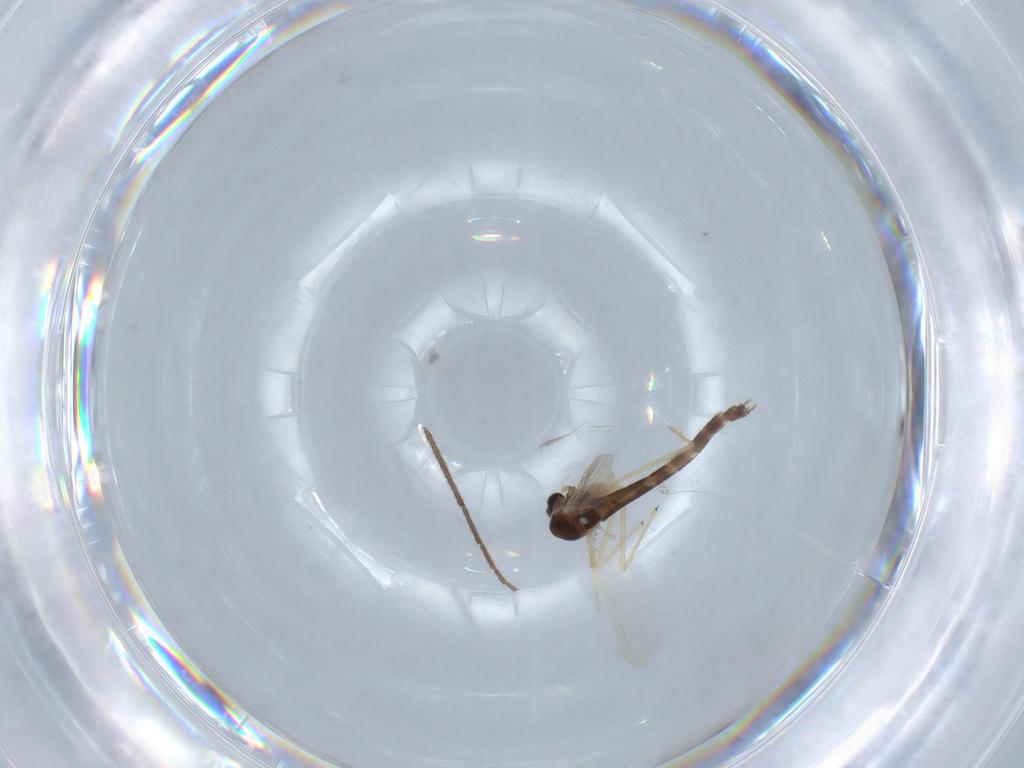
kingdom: Animalia
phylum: Arthropoda
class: Insecta
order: Diptera
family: Chironomidae
